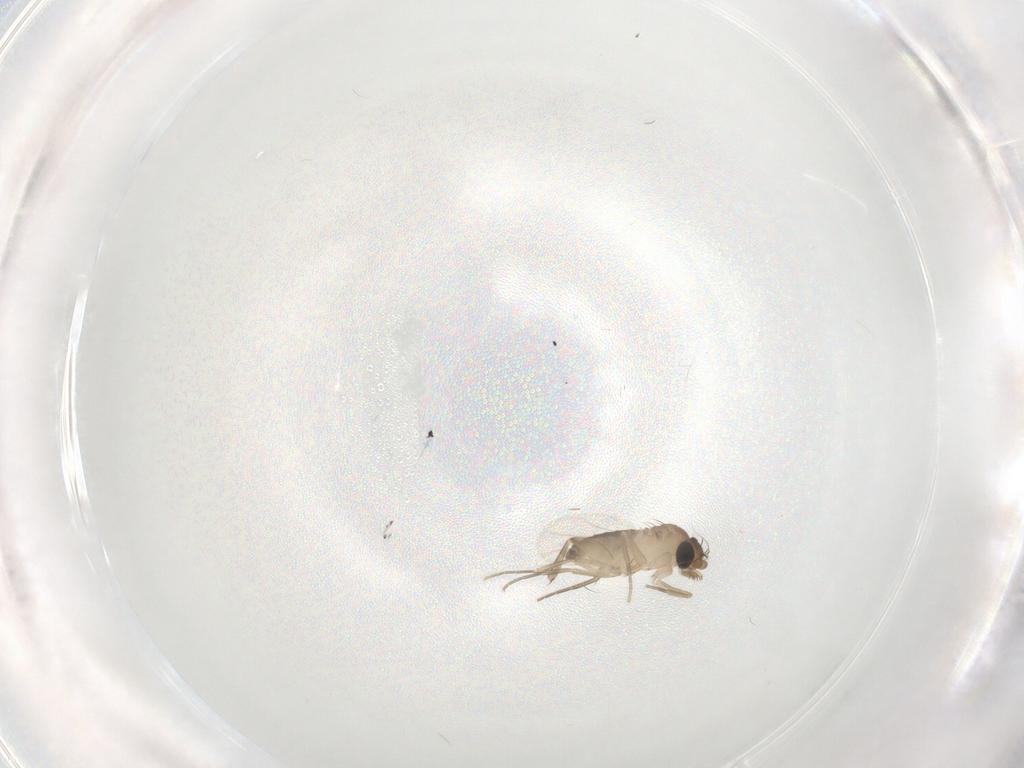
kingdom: Animalia
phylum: Arthropoda
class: Insecta
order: Diptera
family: Phoridae
